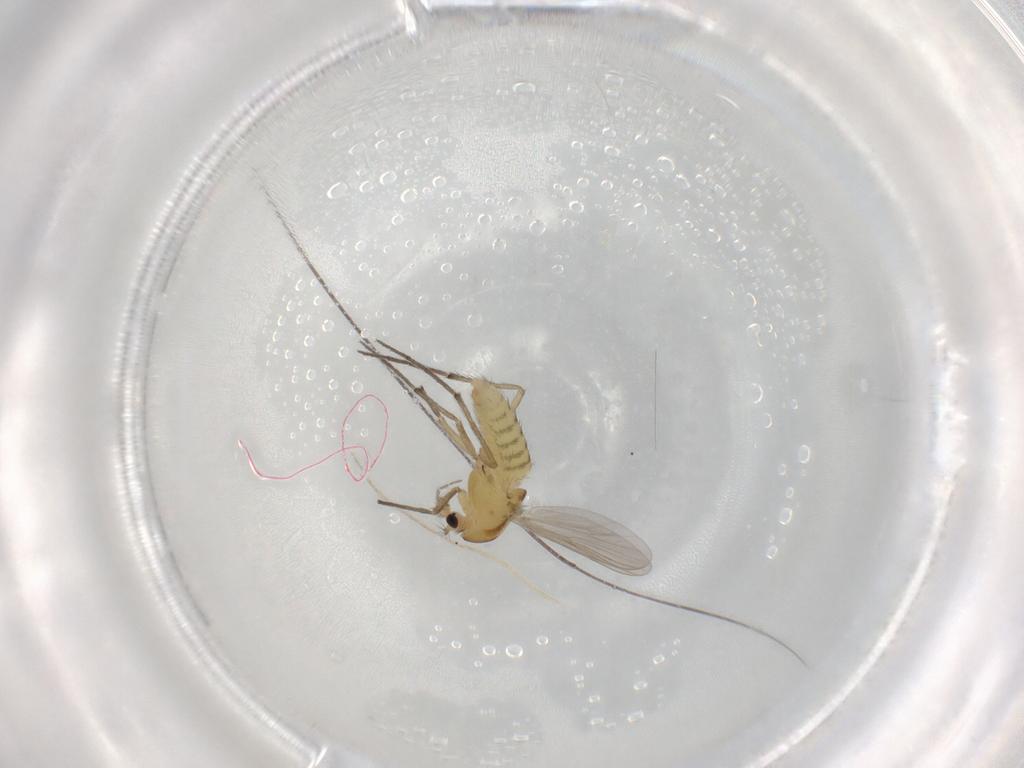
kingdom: Animalia
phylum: Arthropoda
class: Insecta
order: Diptera
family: Chironomidae
